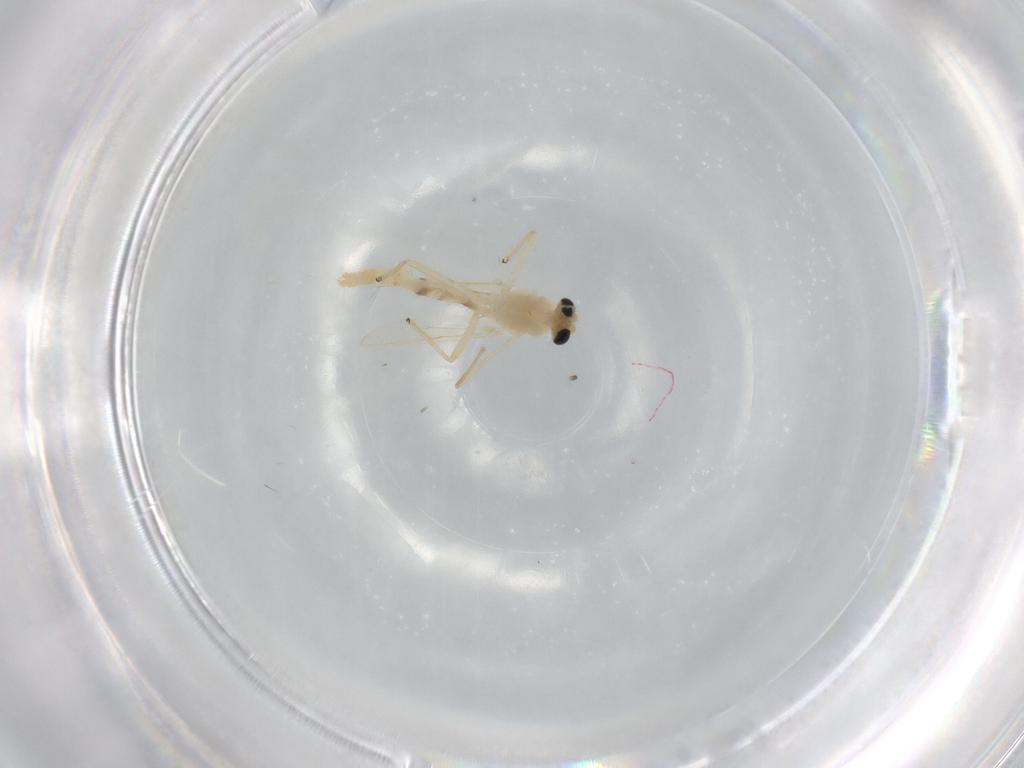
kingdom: Animalia
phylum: Arthropoda
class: Insecta
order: Diptera
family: Chironomidae
